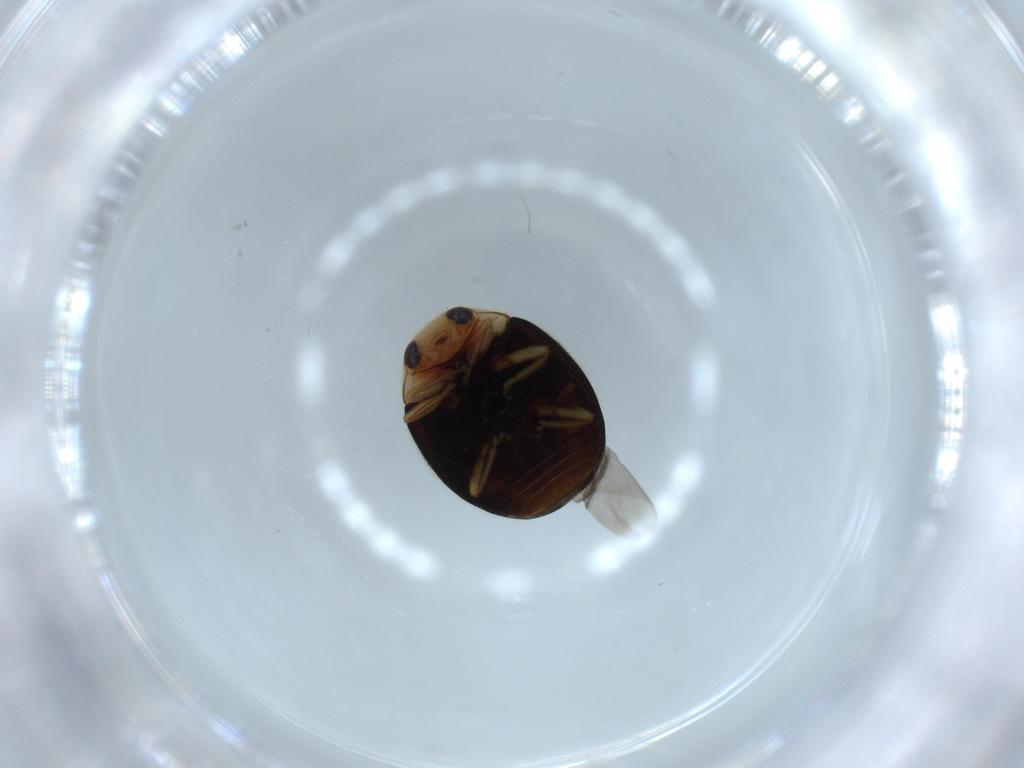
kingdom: Animalia
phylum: Arthropoda
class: Insecta
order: Coleoptera
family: Coccinellidae
